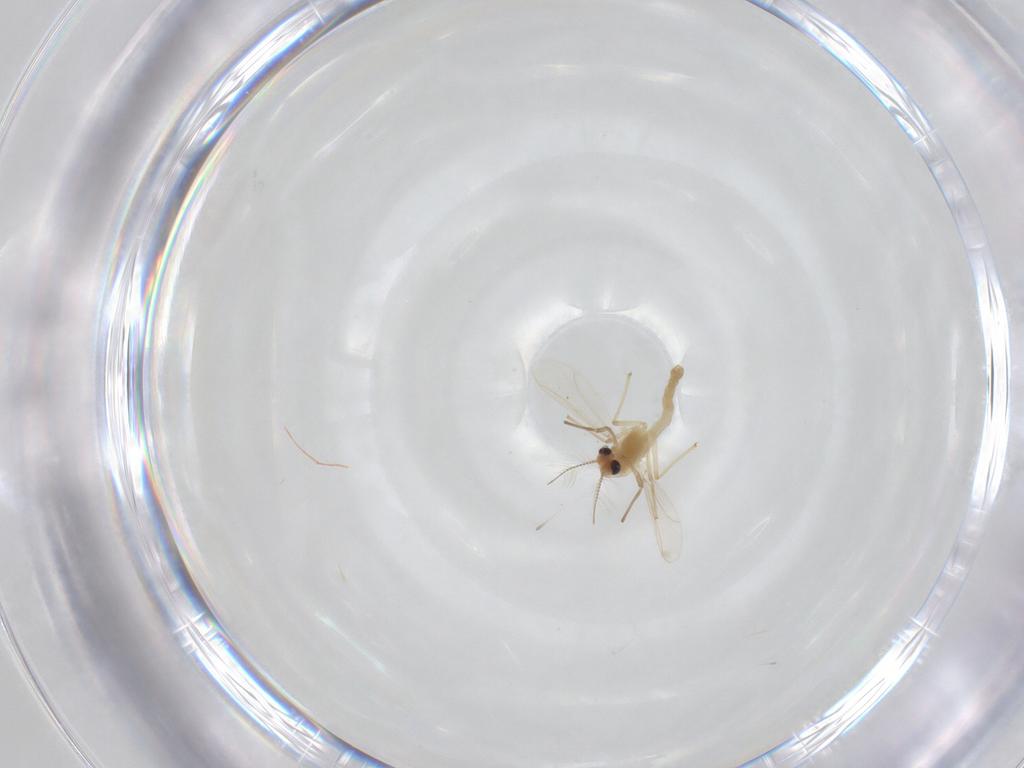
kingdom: Animalia
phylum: Arthropoda
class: Insecta
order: Diptera
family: Chironomidae
